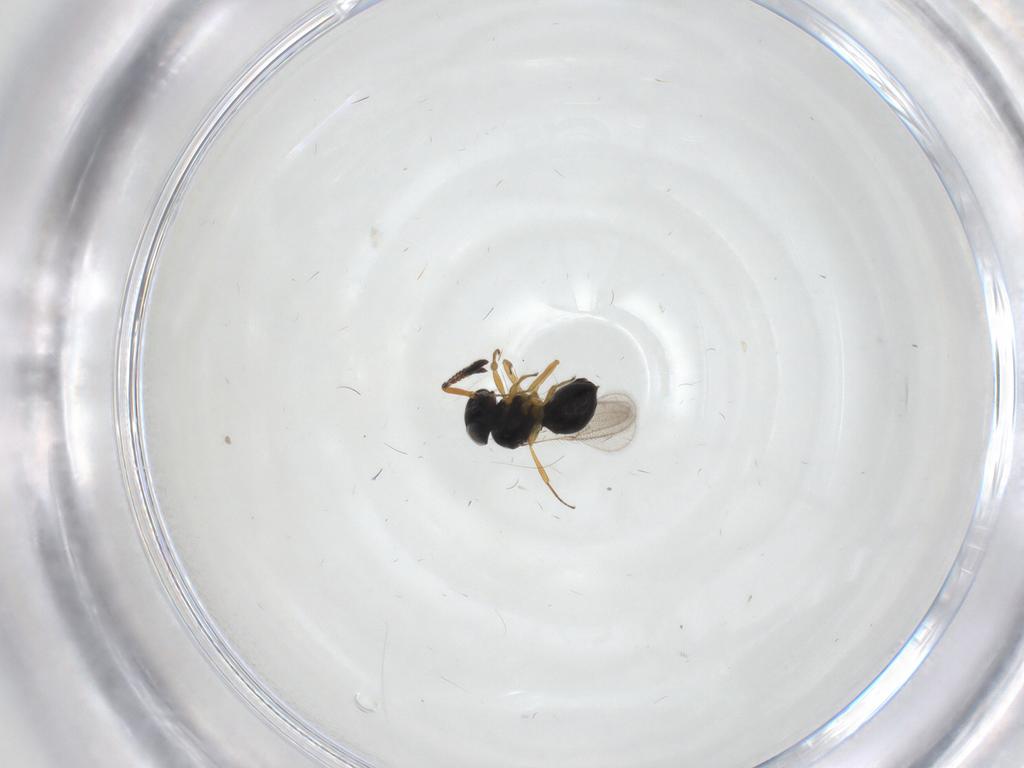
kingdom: Animalia
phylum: Arthropoda
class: Insecta
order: Hymenoptera
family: Scelionidae
